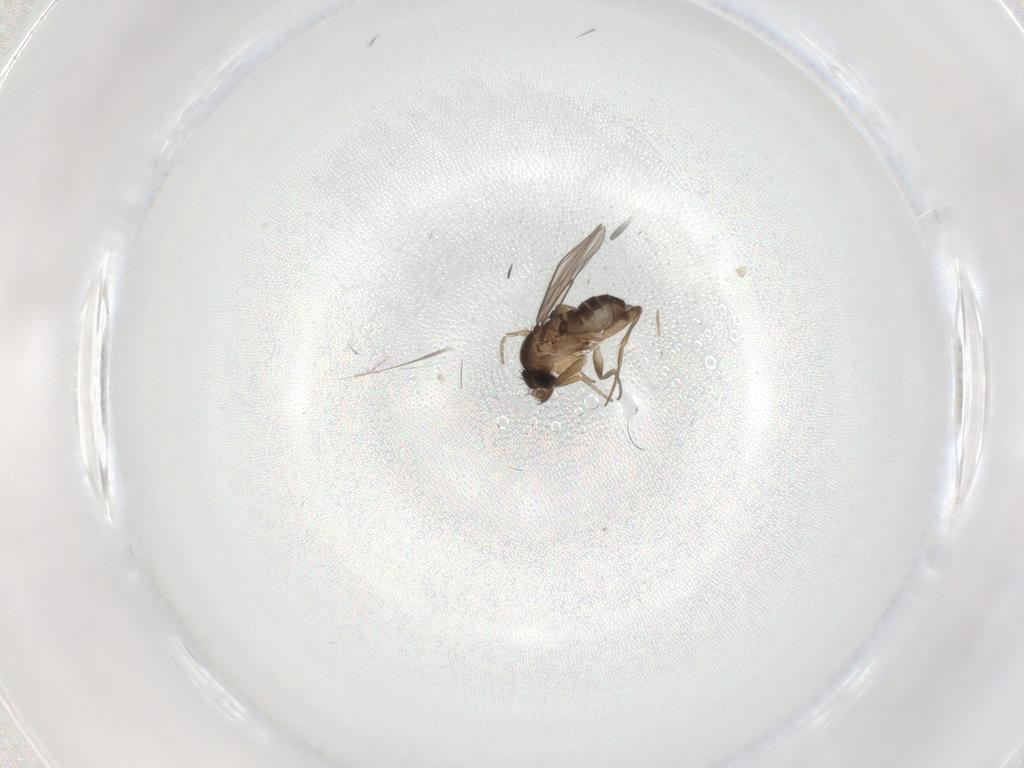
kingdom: Animalia
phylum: Arthropoda
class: Insecta
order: Diptera
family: Phoridae
